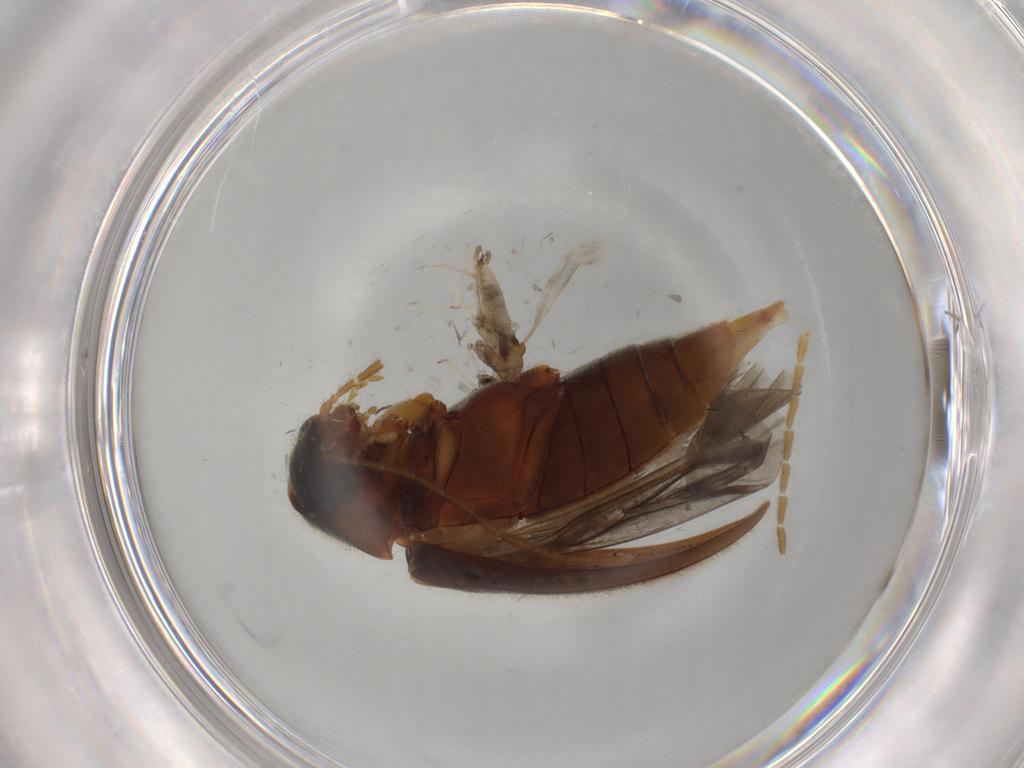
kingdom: Animalia
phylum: Arthropoda
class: Insecta
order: Coleoptera
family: Ptilodactylidae
